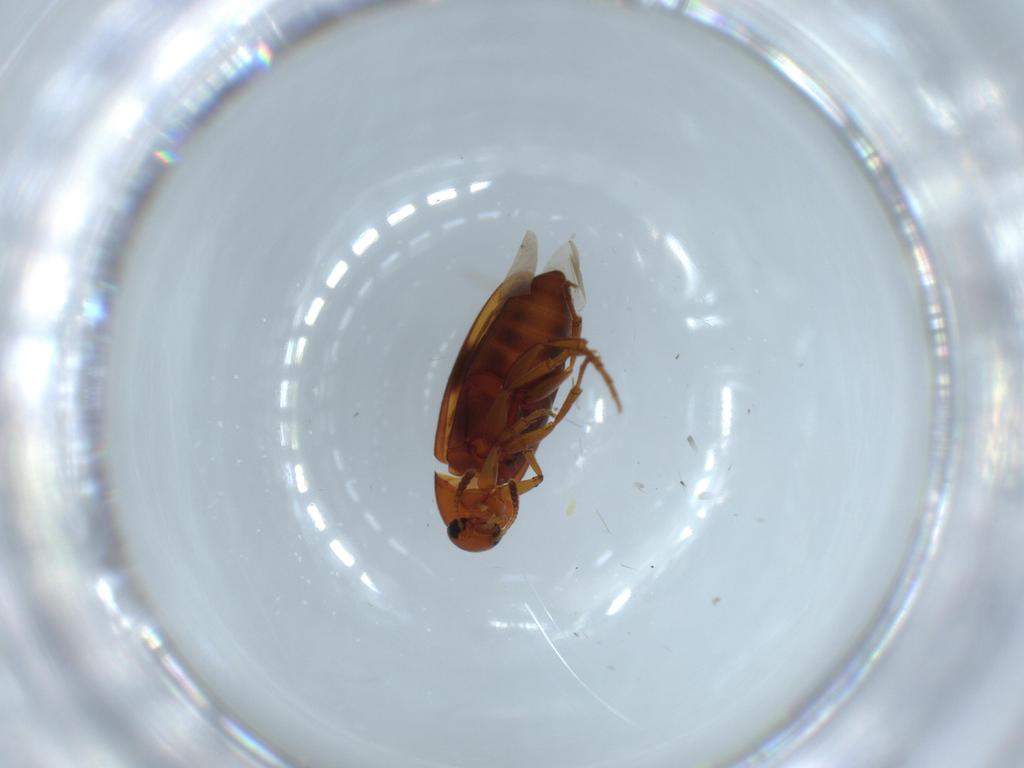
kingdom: Animalia
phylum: Arthropoda
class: Insecta
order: Coleoptera
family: Scraptiidae
